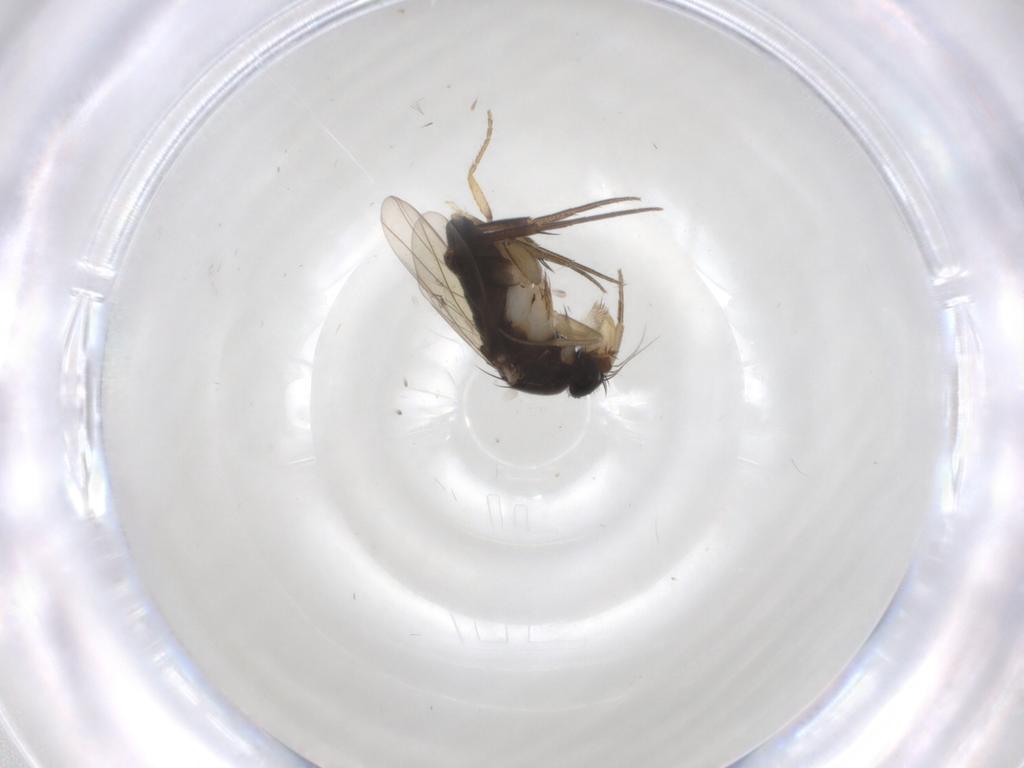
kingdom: Animalia
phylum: Arthropoda
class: Insecta
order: Diptera
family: Phoridae
